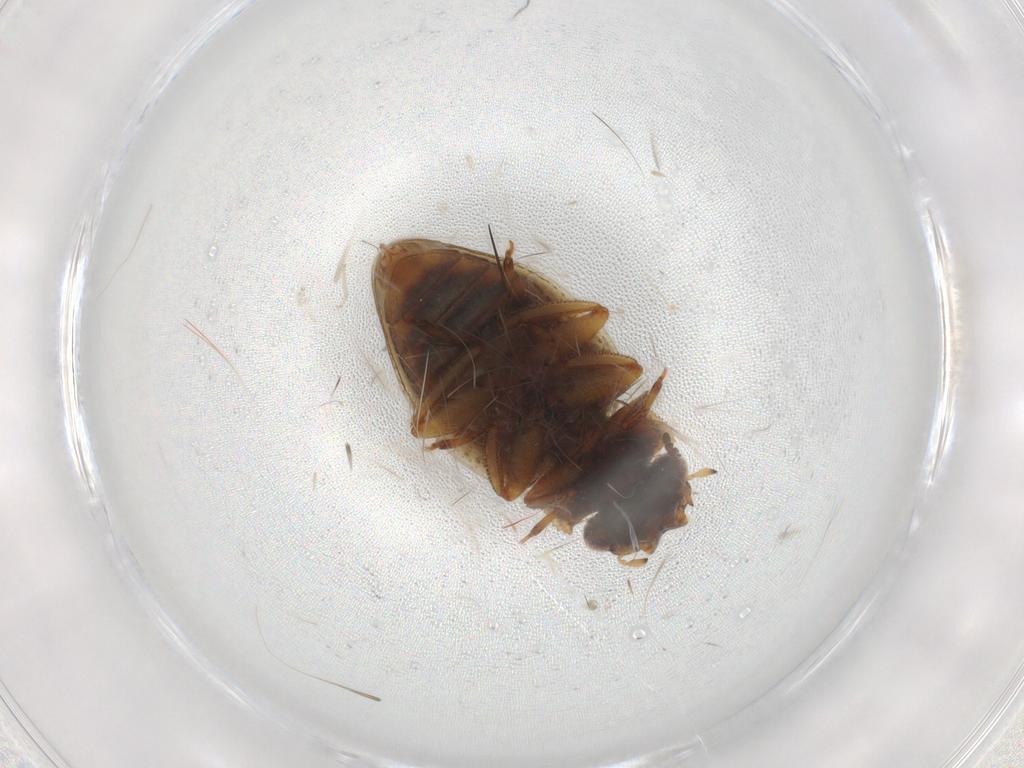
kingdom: Animalia
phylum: Arthropoda
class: Insecta
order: Coleoptera
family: Spercheidae
